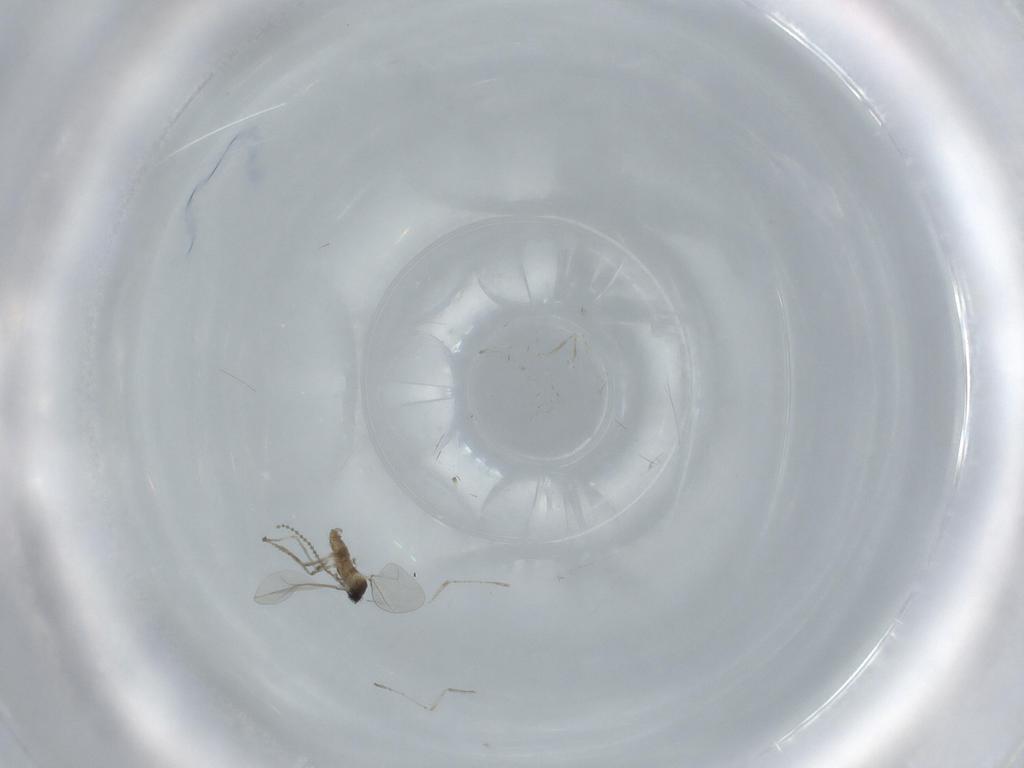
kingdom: Animalia
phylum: Arthropoda
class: Insecta
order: Diptera
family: Cecidomyiidae
